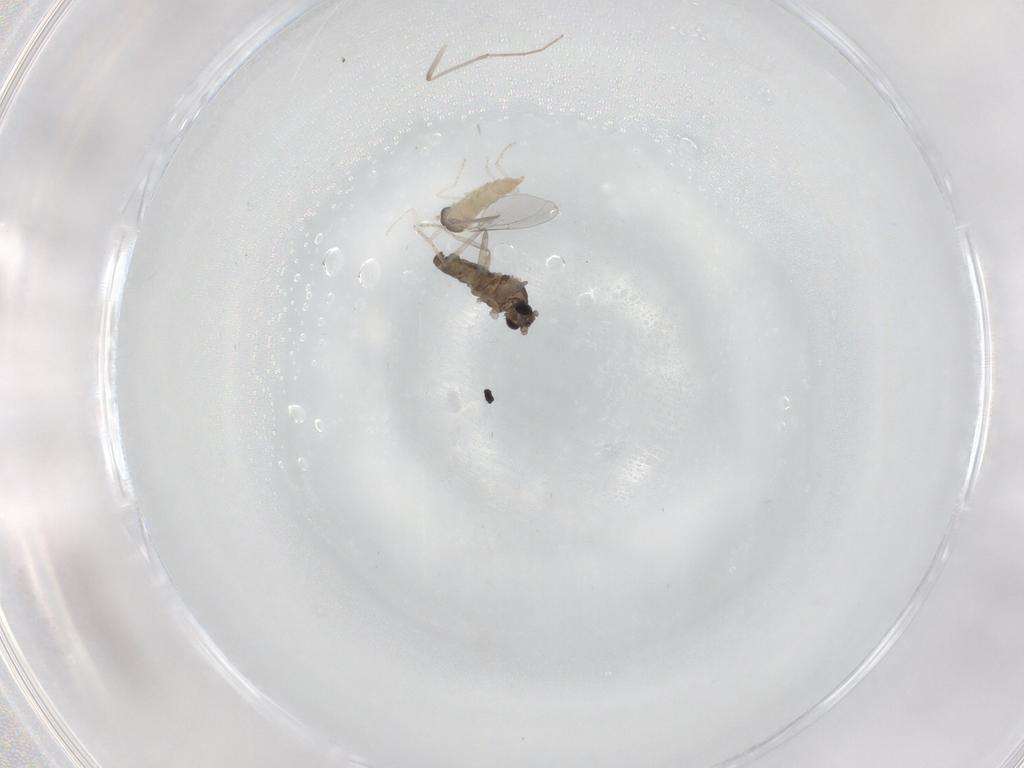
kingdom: Animalia
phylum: Arthropoda
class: Insecta
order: Diptera
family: Cecidomyiidae
